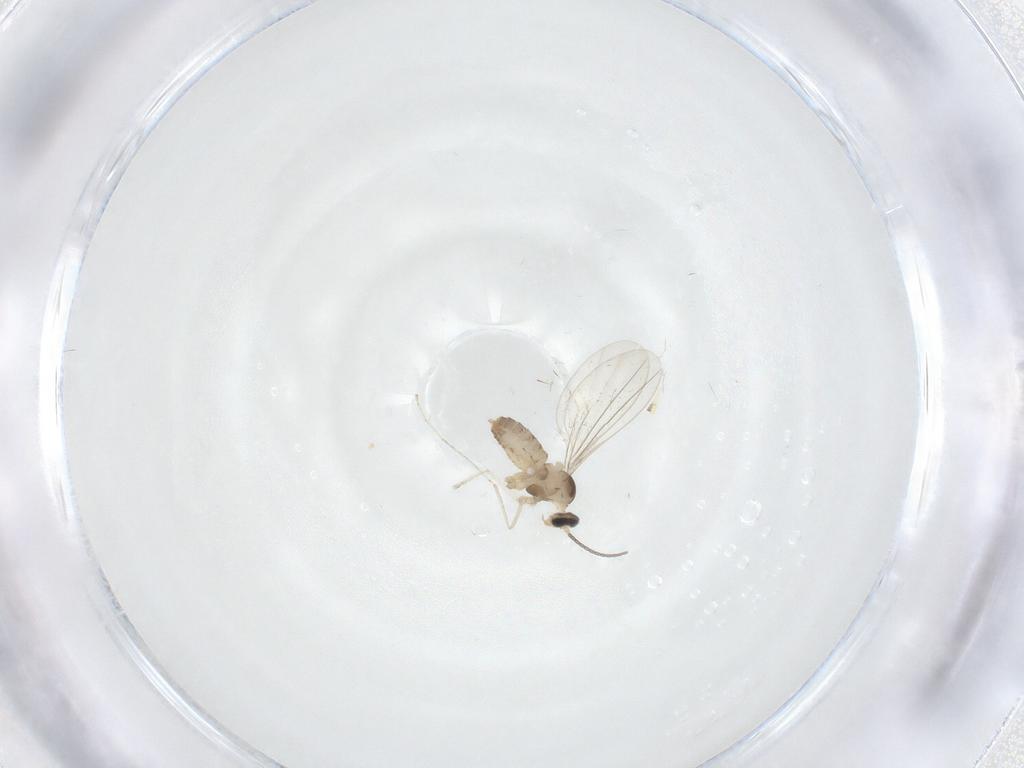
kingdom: Animalia
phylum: Arthropoda
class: Insecta
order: Diptera
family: Cecidomyiidae
